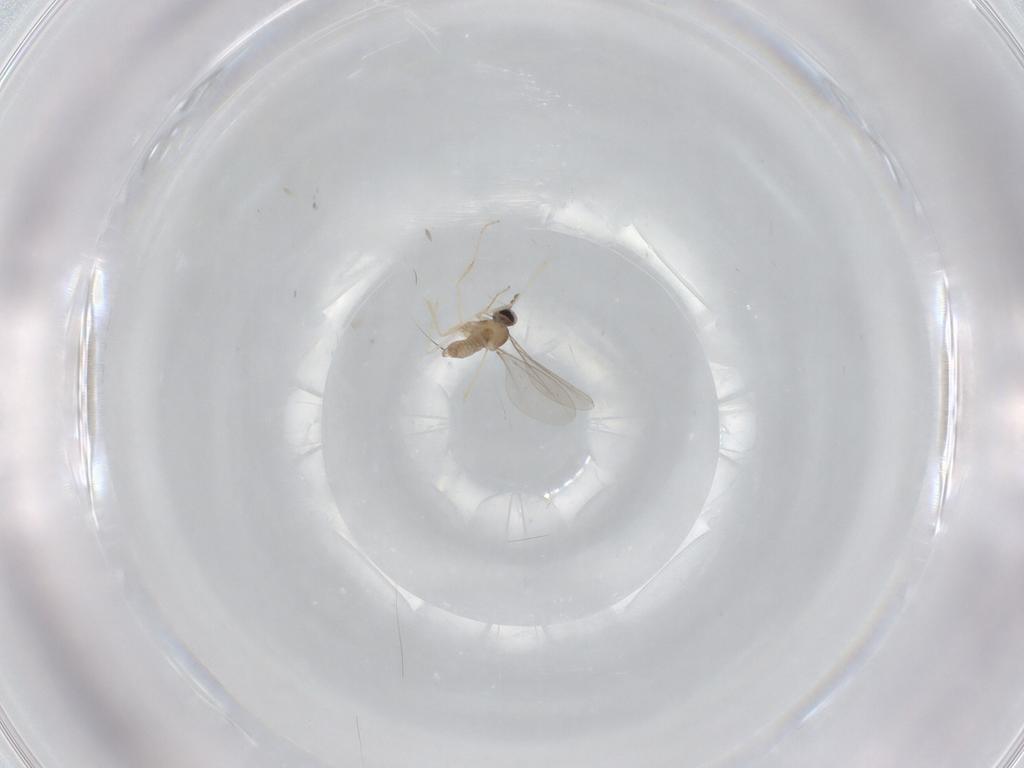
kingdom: Animalia
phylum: Arthropoda
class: Insecta
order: Diptera
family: Cecidomyiidae
